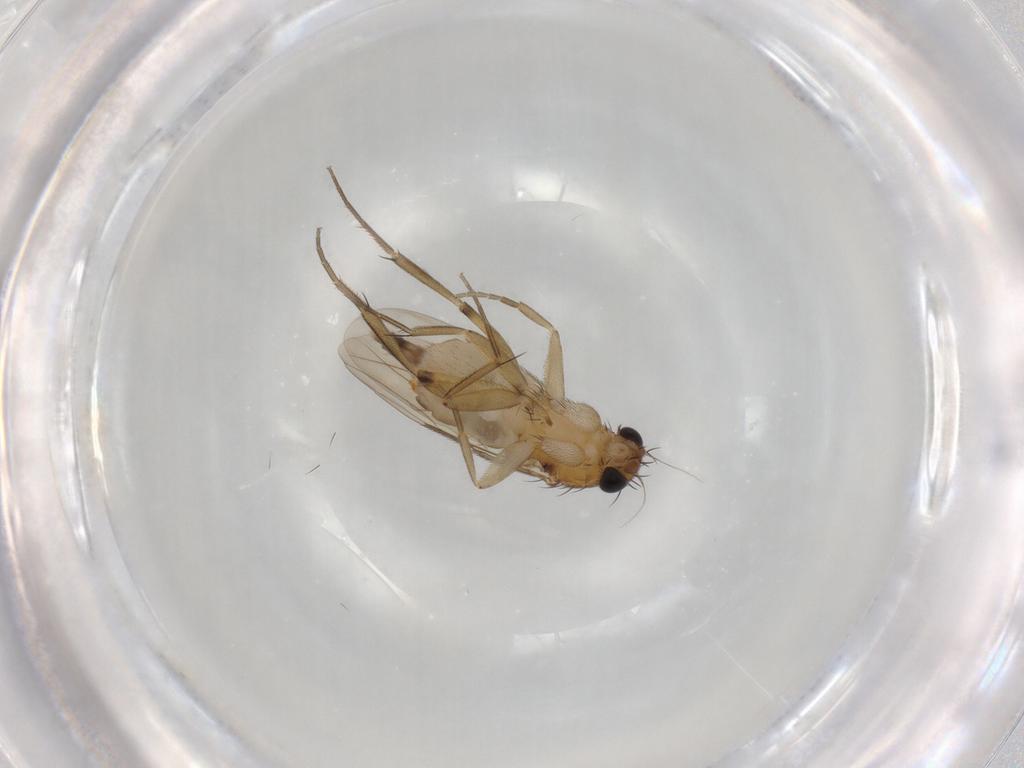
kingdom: Animalia
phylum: Arthropoda
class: Insecta
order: Diptera
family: Phoridae
